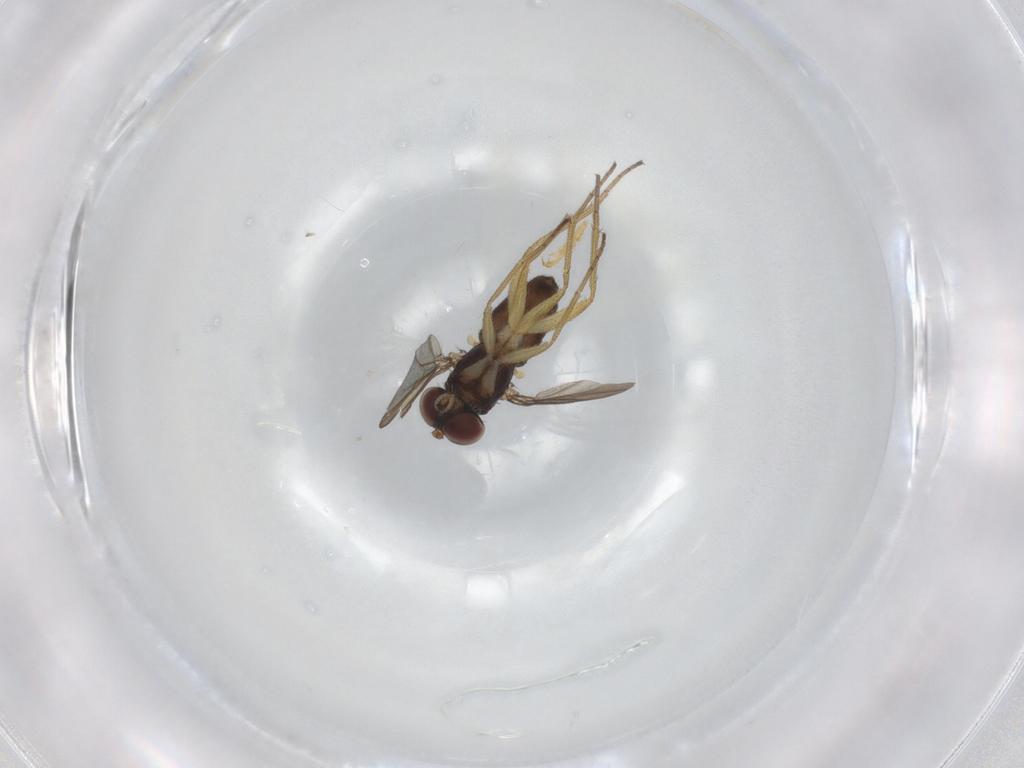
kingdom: Animalia
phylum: Arthropoda
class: Insecta
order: Diptera
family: Dolichopodidae
